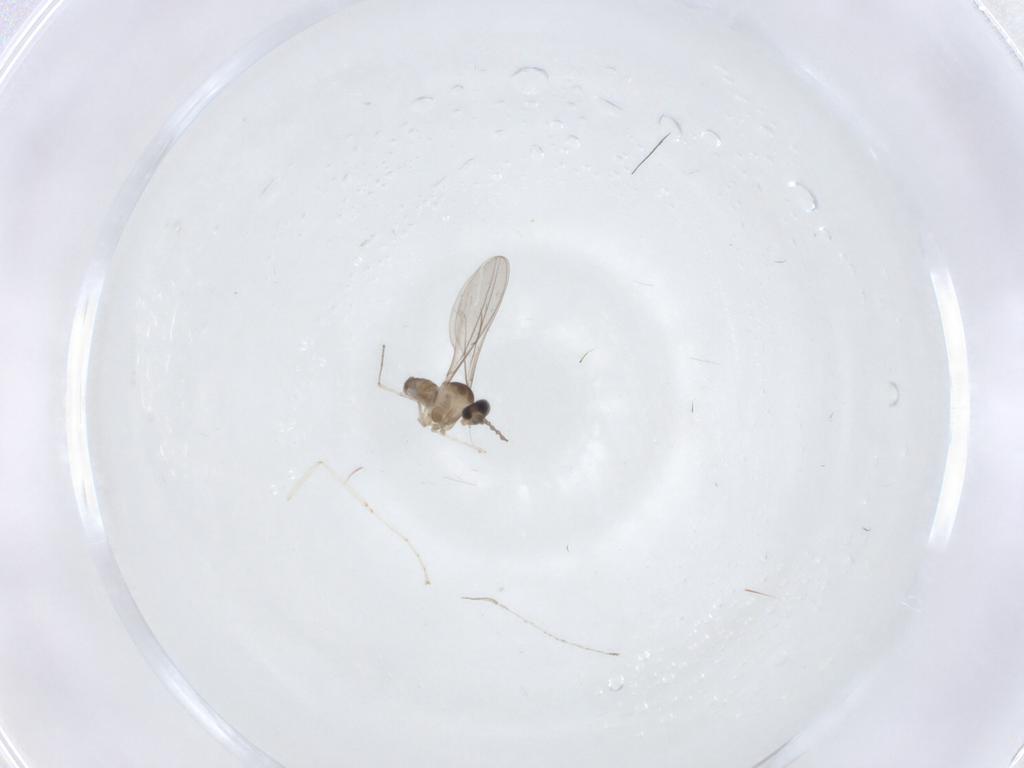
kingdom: Animalia
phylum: Arthropoda
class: Insecta
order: Diptera
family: Cecidomyiidae
